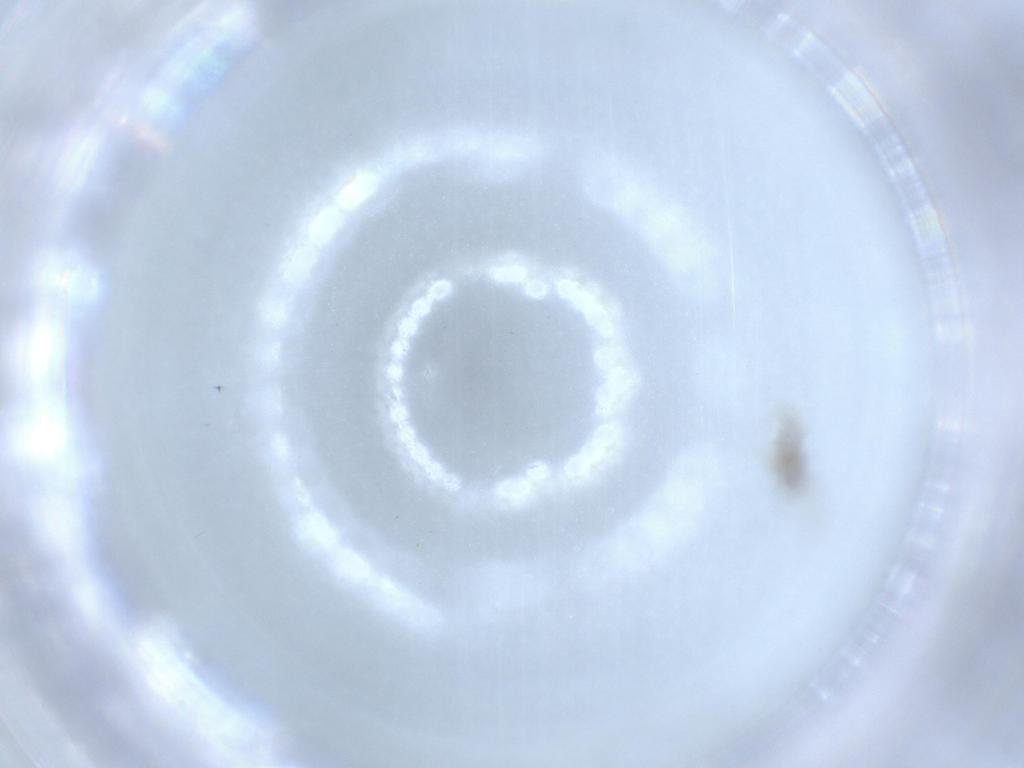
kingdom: Animalia
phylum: Arthropoda
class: Insecta
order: Diptera
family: Cecidomyiidae
